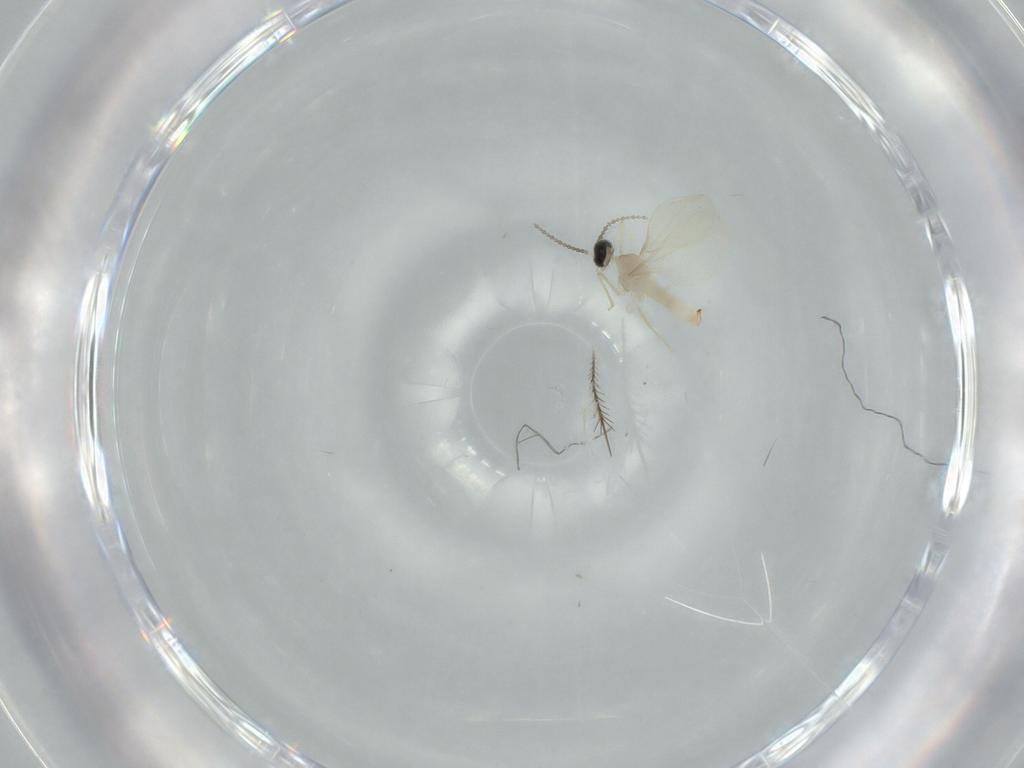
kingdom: Animalia
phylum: Arthropoda
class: Insecta
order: Diptera
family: Cecidomyiidae
